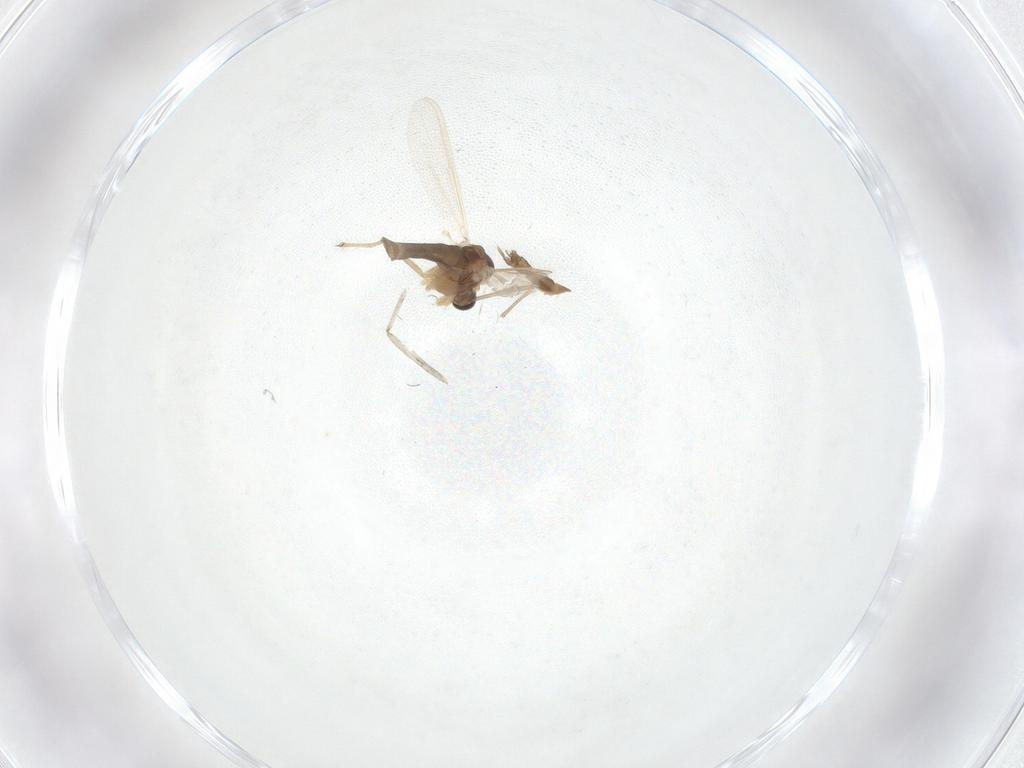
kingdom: Animalia
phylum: Arthropoda
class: Insecta
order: Diptera
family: Chironomidae
